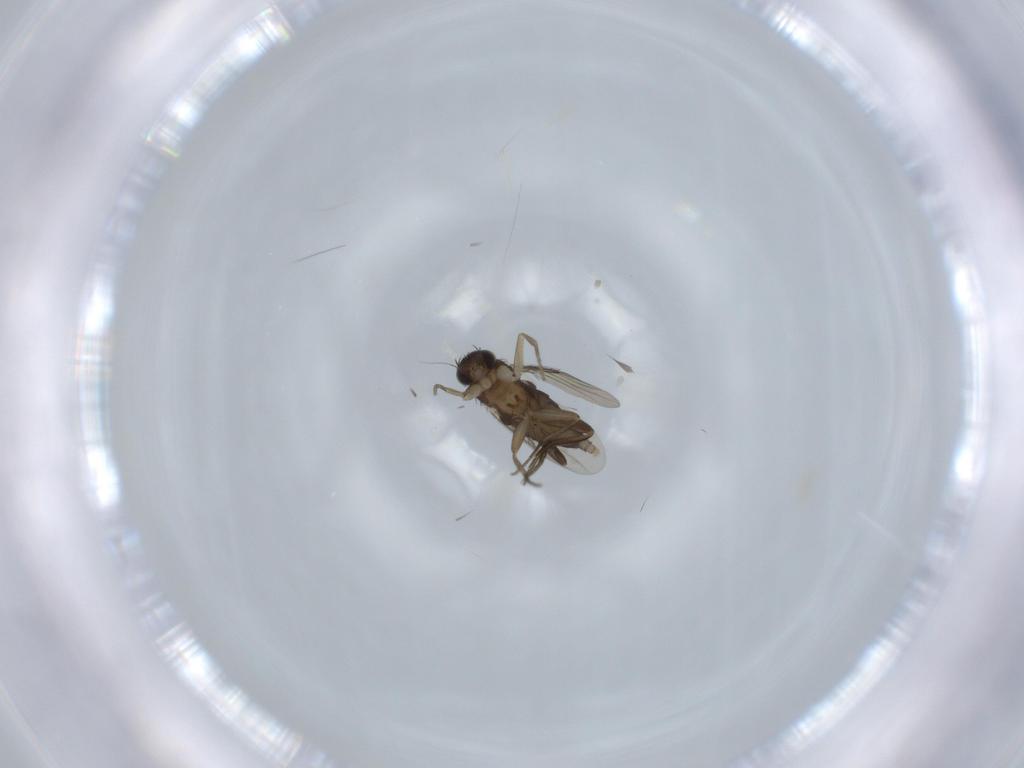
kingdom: Animalia
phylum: Arthropoda
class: Insecta
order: Diptera
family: Phoridae
